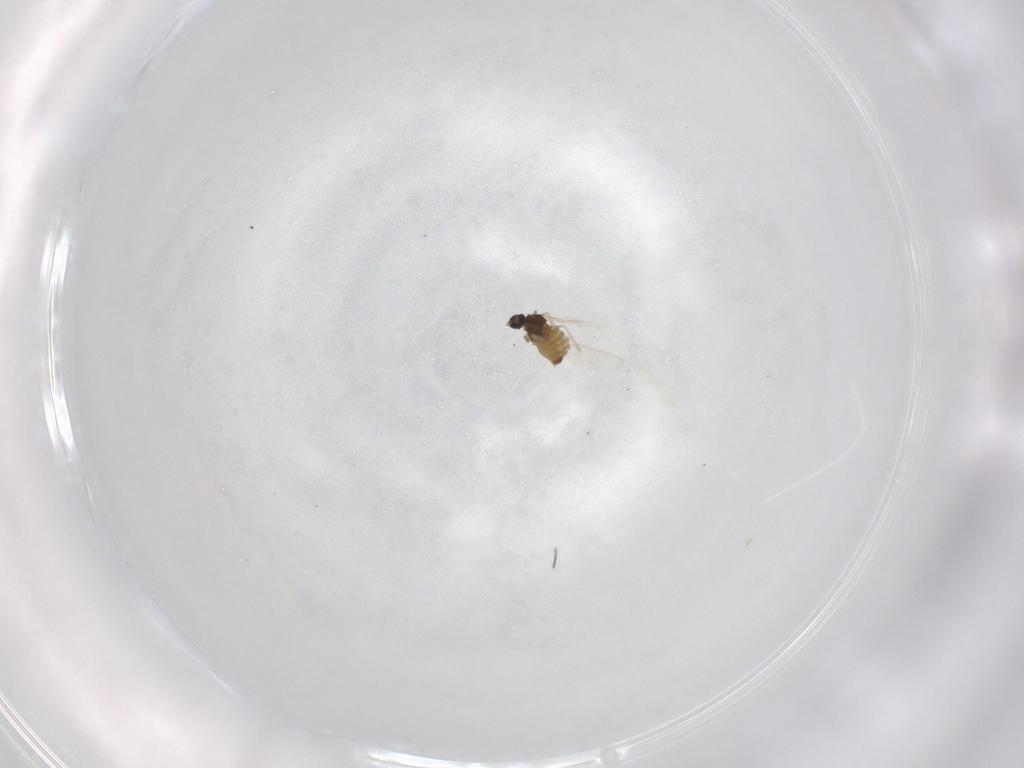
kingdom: Animalia
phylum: Arthropoda
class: Insecta
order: Diptera
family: Cecidomyiidae
